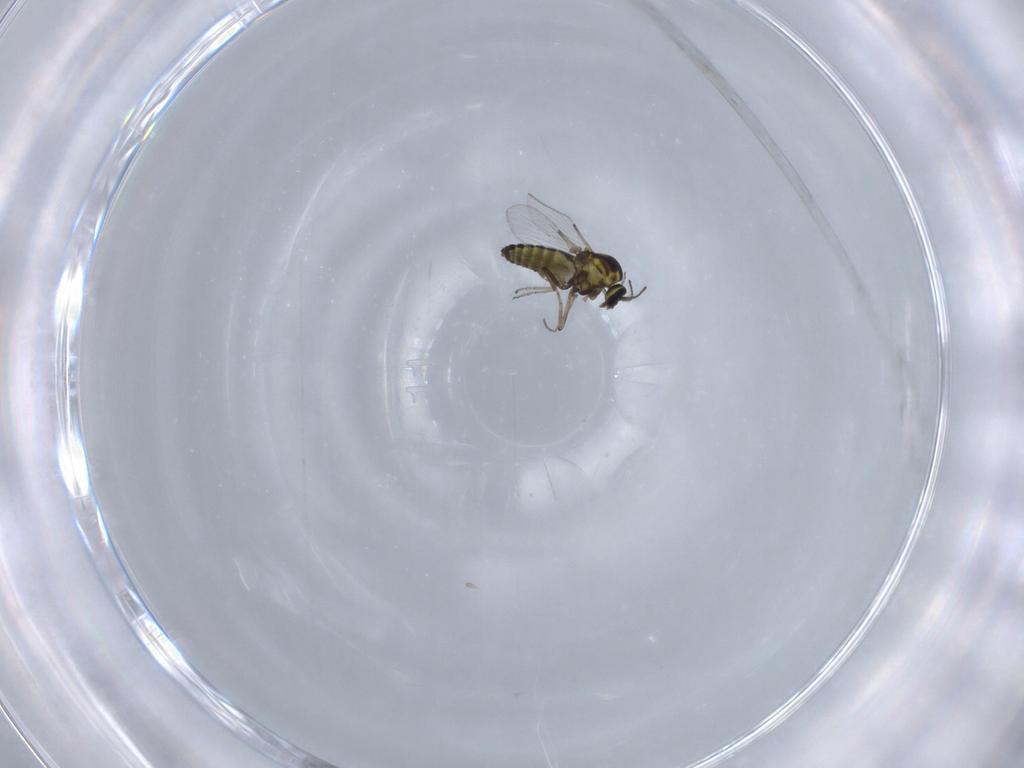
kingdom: Animalia
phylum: Arthropoda
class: Insecta
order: Diptera
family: Ceratopogonidae
